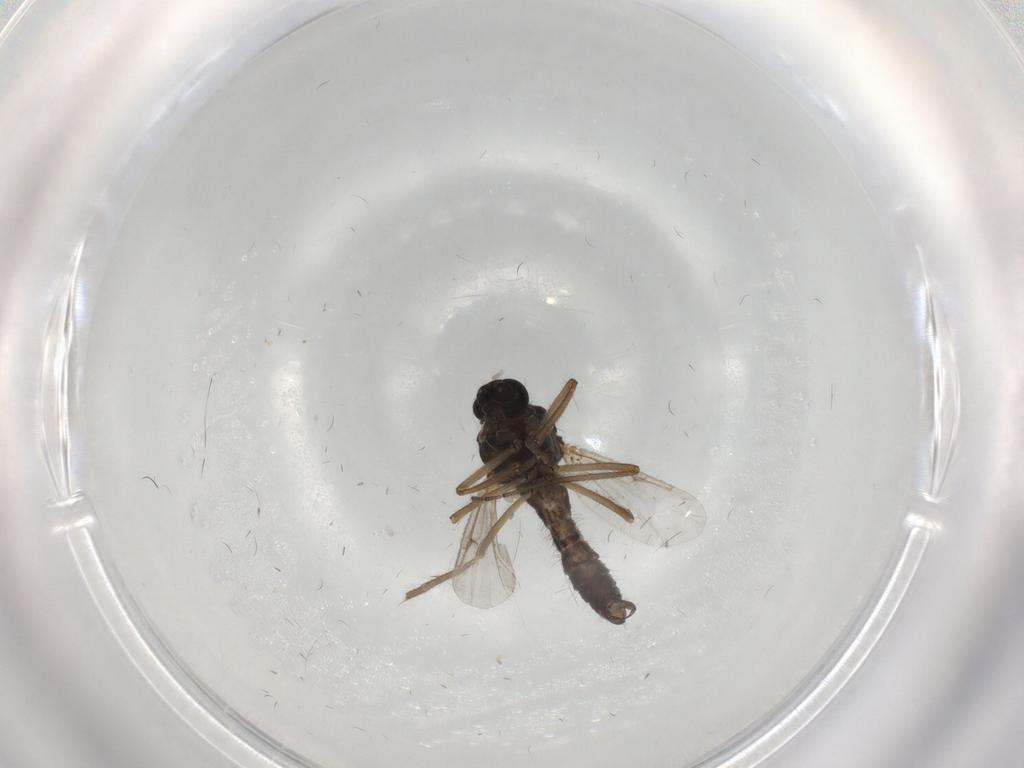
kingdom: Animalia
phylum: Arthropoda
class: Insecta
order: Diptera
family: Ceratopogonidae
